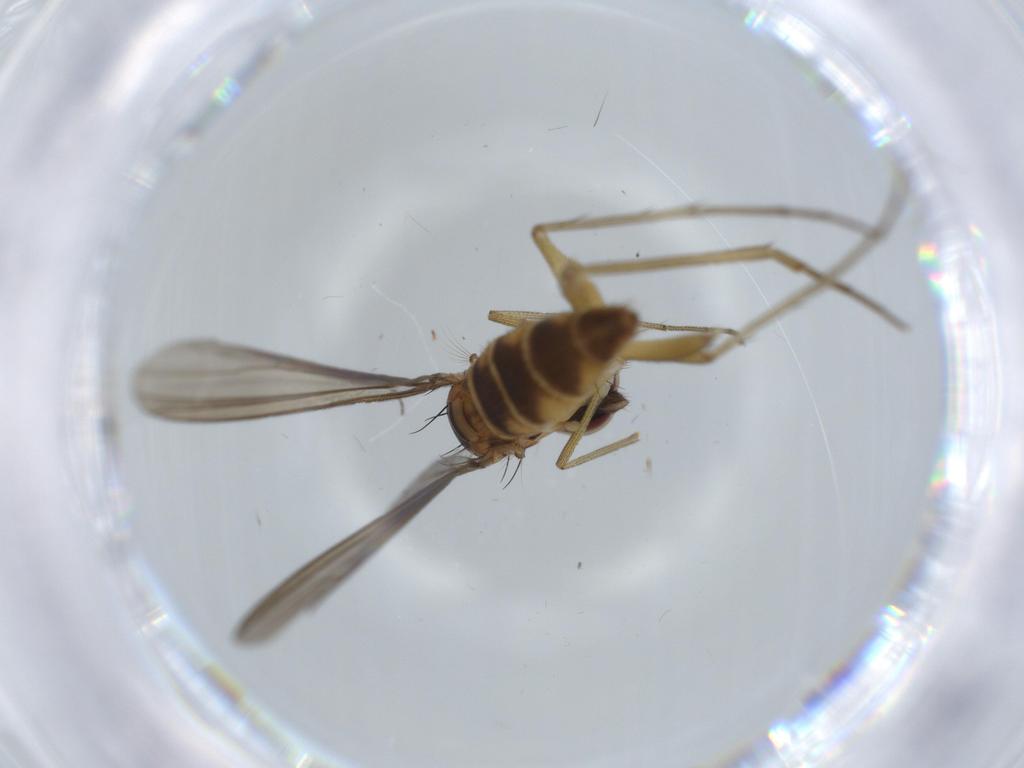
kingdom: Animalia
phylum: Arthropoda
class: Insecta
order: Diptera
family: Cecidomyiidae
